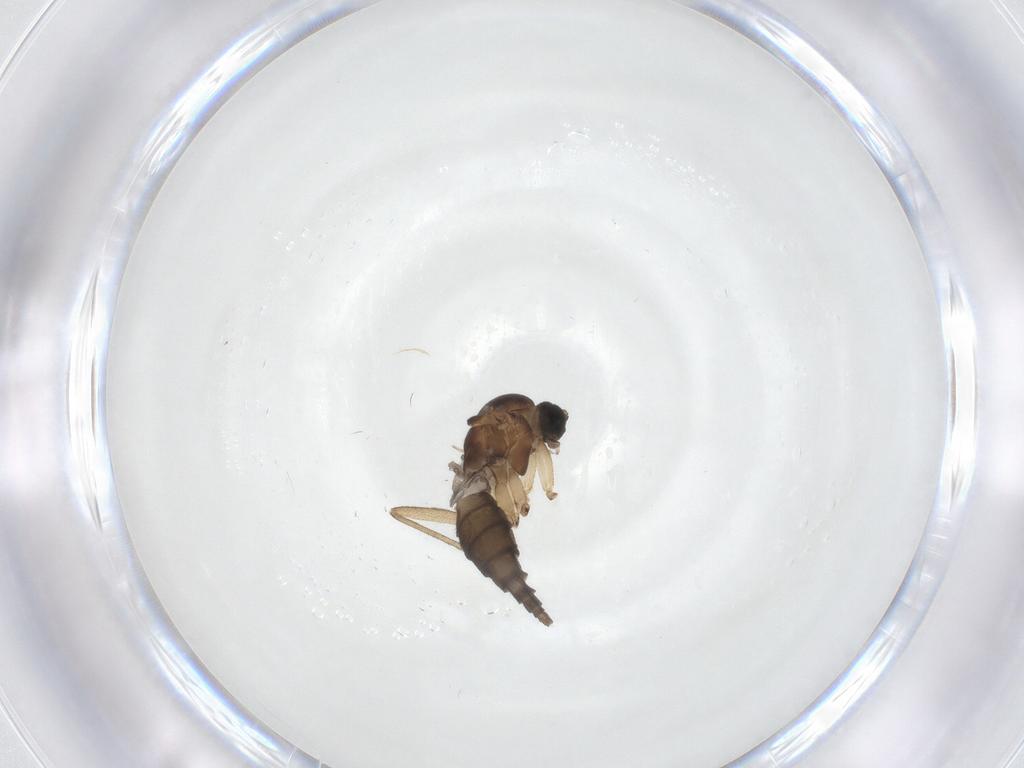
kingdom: Animalia
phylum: Arthropoda
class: Insecta
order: Diptera
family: Sciaridae
